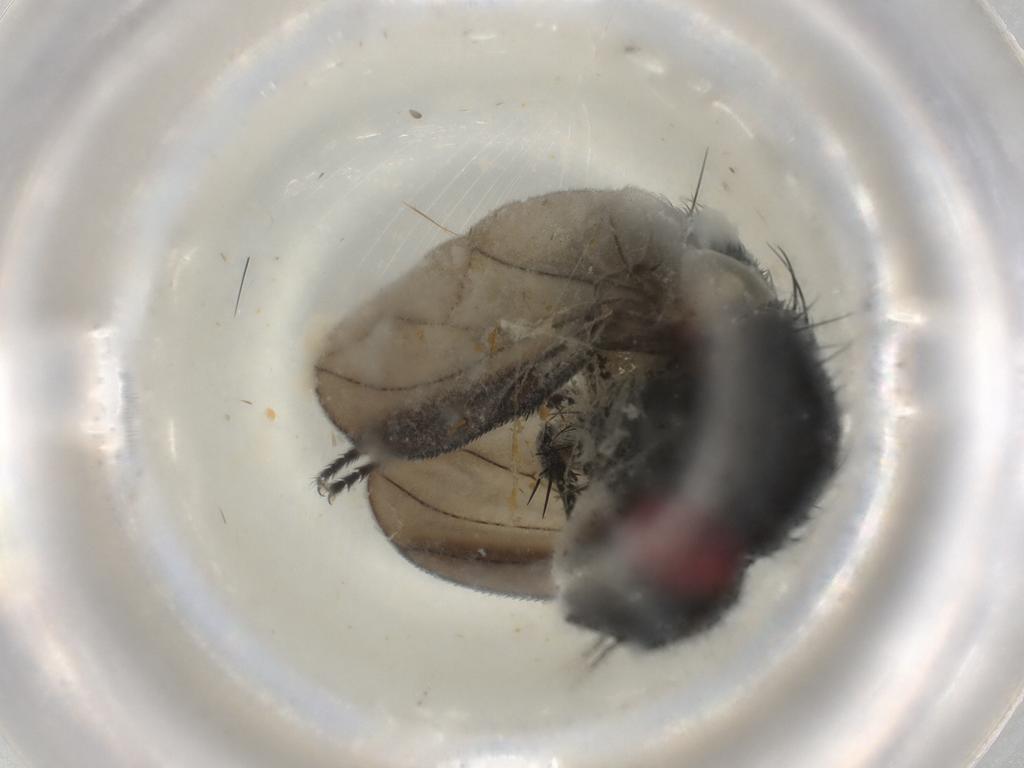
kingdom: Animalia
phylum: Arthropoda
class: Insecta
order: Diptera
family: Cecidomyiidae
